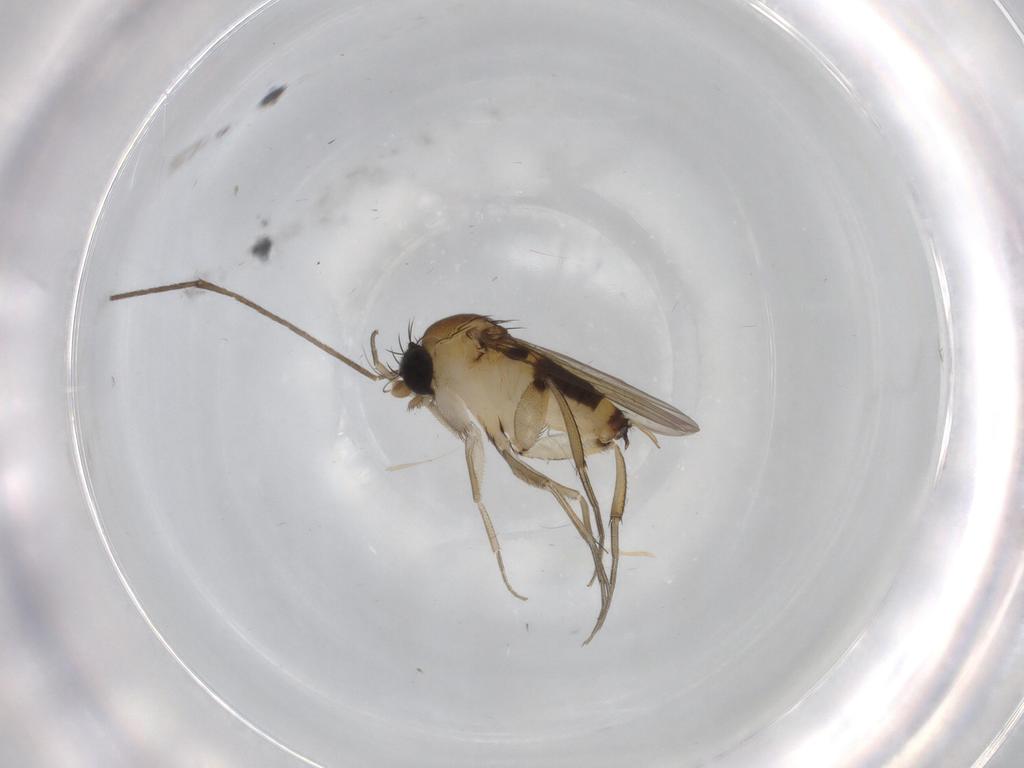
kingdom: Animalia
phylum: Arthropoda
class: Insecta
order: Diptera
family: Phoridae
